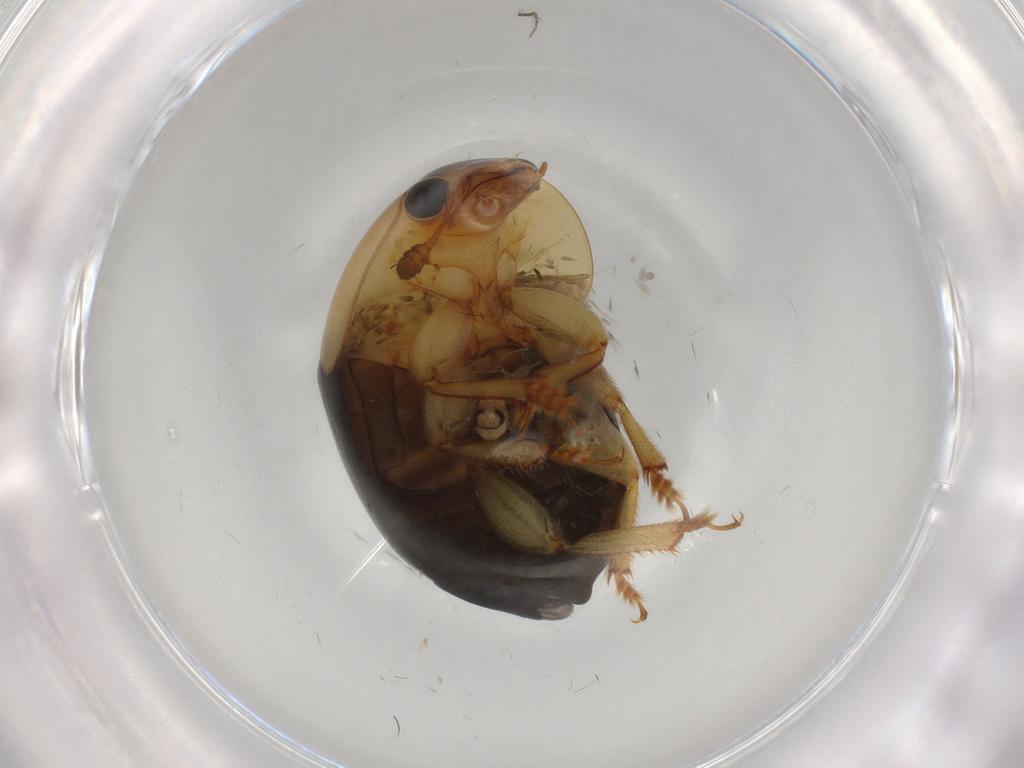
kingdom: Animalia
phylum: Arthropoda
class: Insecta
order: Coleoptera
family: Nitidulidae
